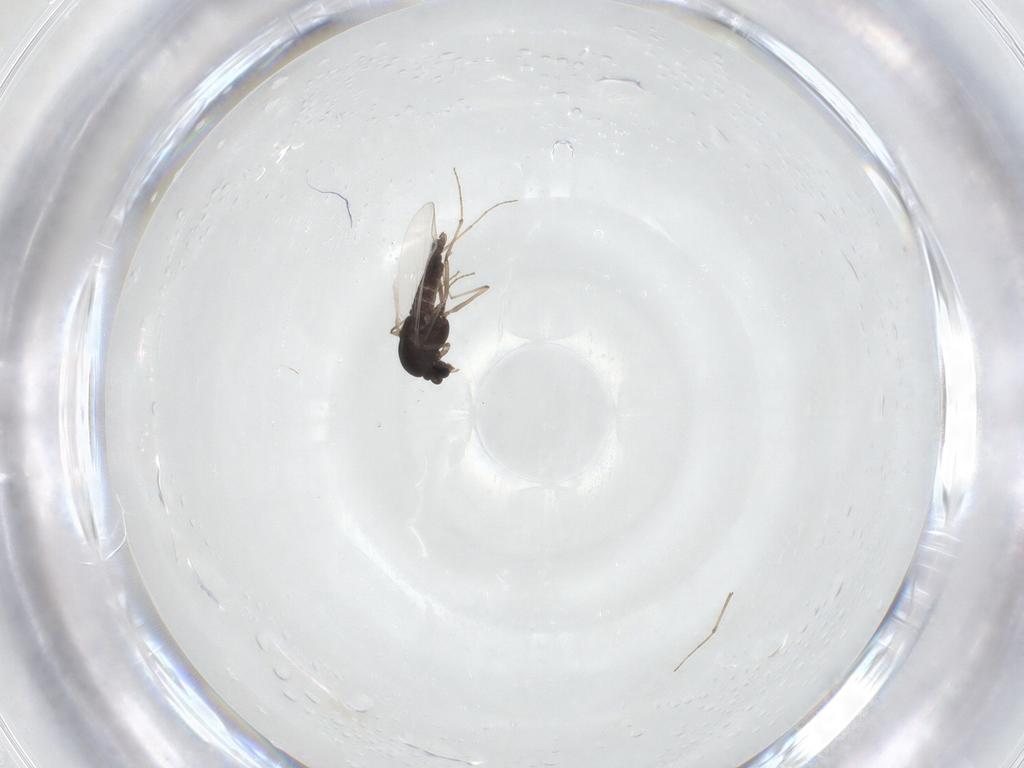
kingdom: Animalia
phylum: Arthropoda
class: Insecta
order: Diptera
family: Chironomidae
